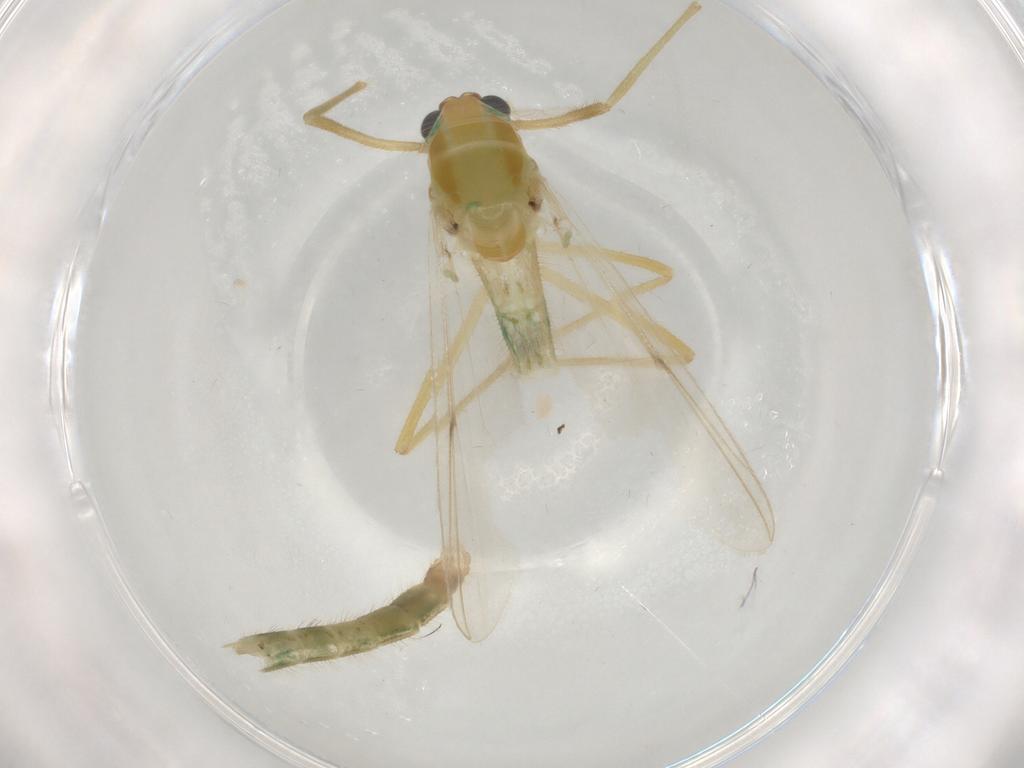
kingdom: Animalia
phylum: Arthropoda
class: Insecta
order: Diptera
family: Chironomidae
